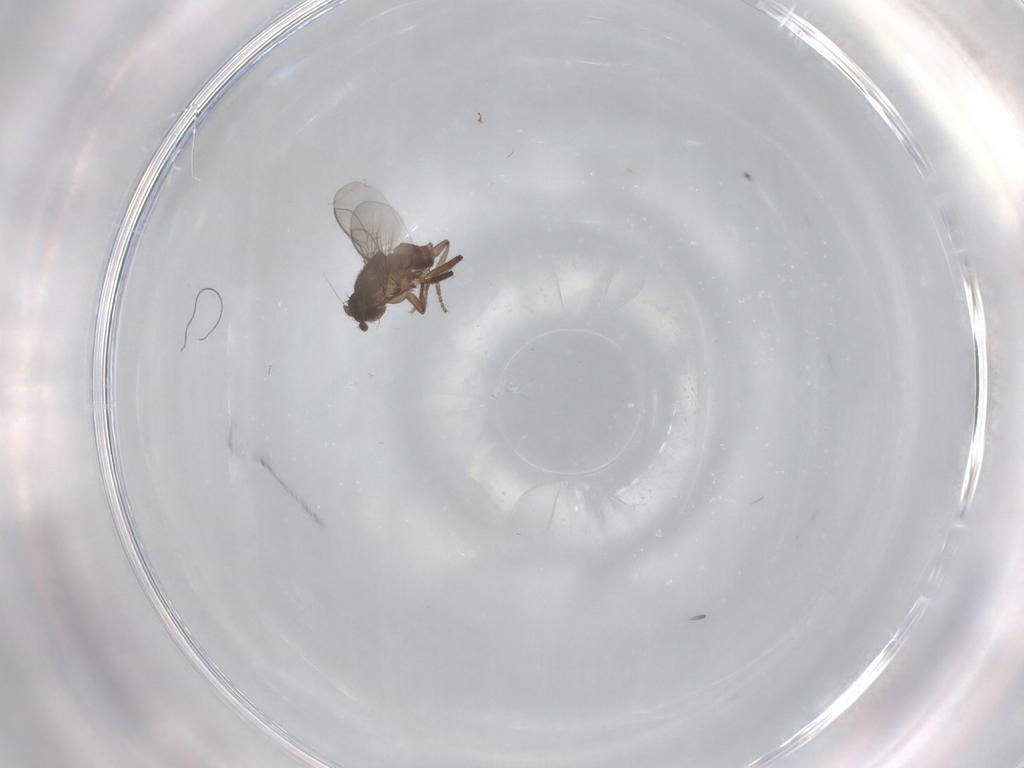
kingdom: Animalia
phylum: Arthropoda
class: Insecta
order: Diptera
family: Sphaeroceridae
